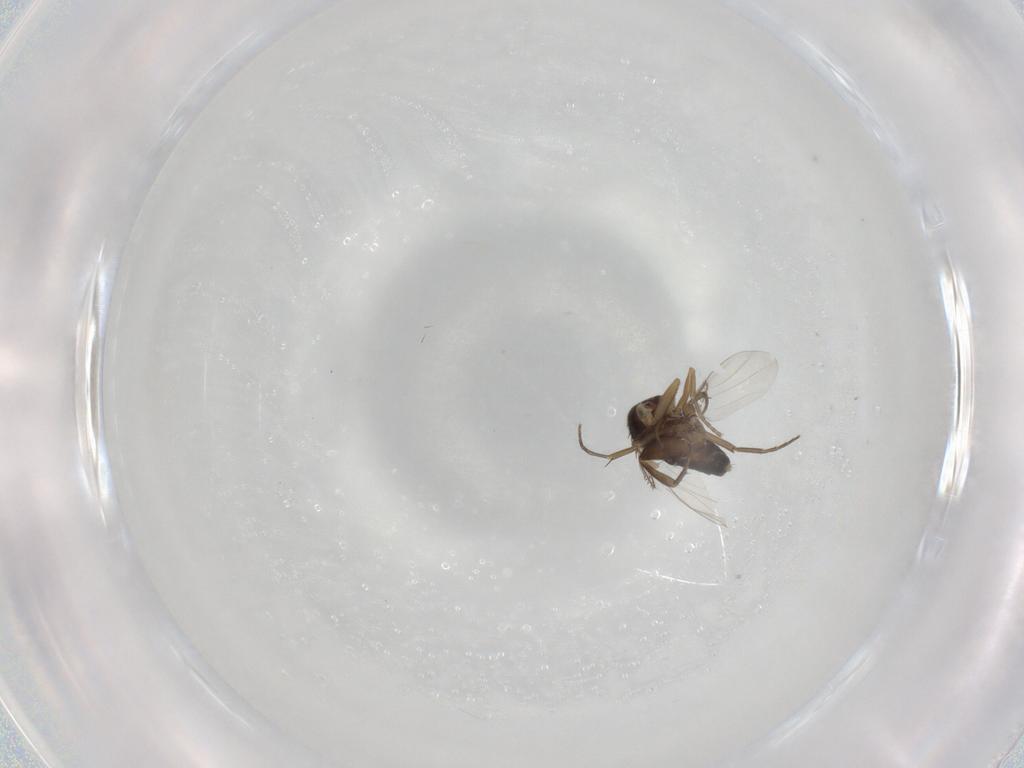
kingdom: Animalia
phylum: Arthropoda
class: Insecta
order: Diptera
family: Phoridae
